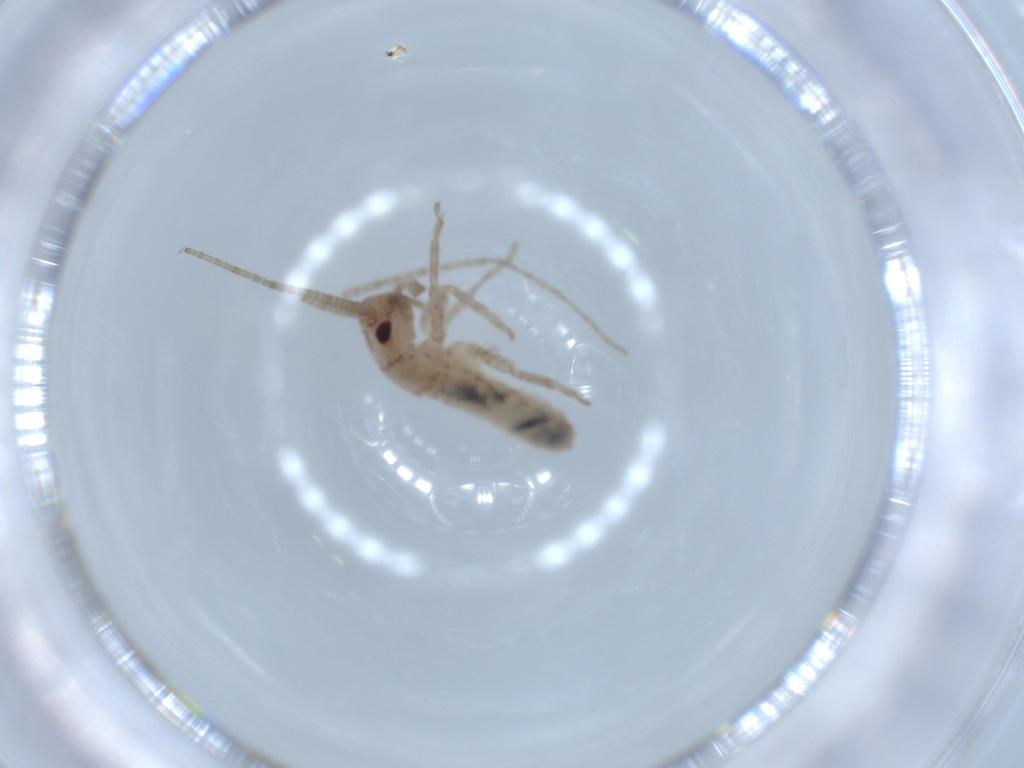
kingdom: Animalia
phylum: Arthropoda
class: Insecta
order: Orthoptera
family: Mogoplistidae
